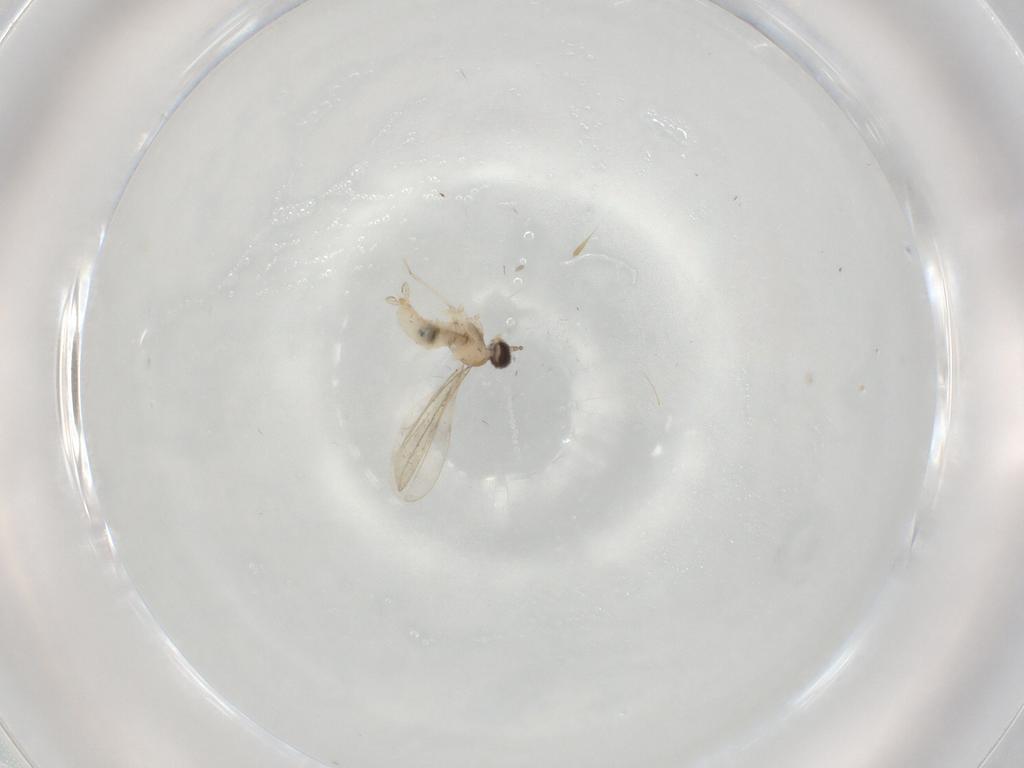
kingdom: Animalia
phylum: Arthropoda
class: Insecta
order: Diptera
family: Cecidomyiidae
